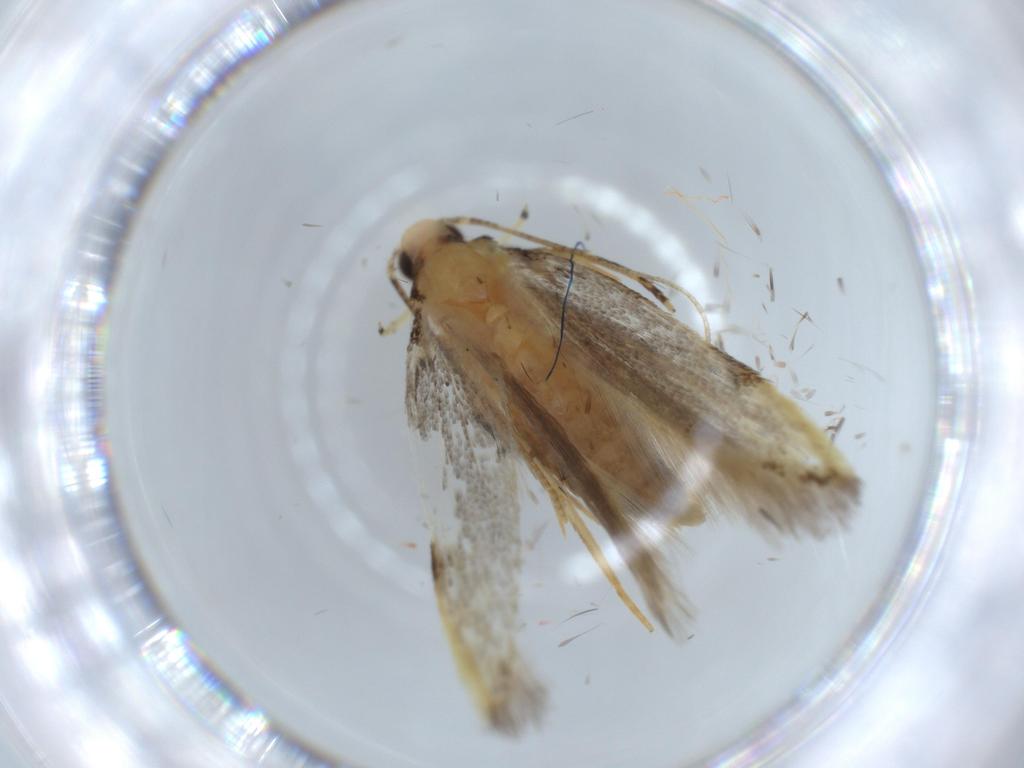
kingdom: Animalia
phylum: Arthropoda
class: Insecta
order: Lepidoptera
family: Autostichidae
